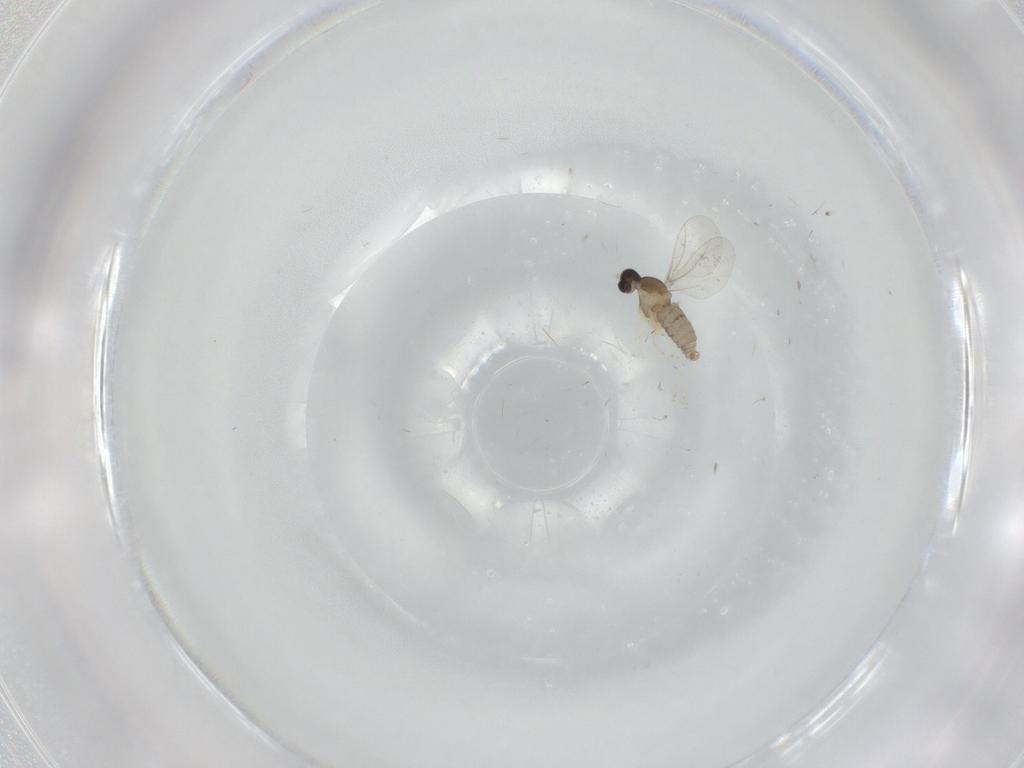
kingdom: Animalia
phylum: Arthropoda
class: Insecta
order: Diptera
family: Cecidomyiidae
